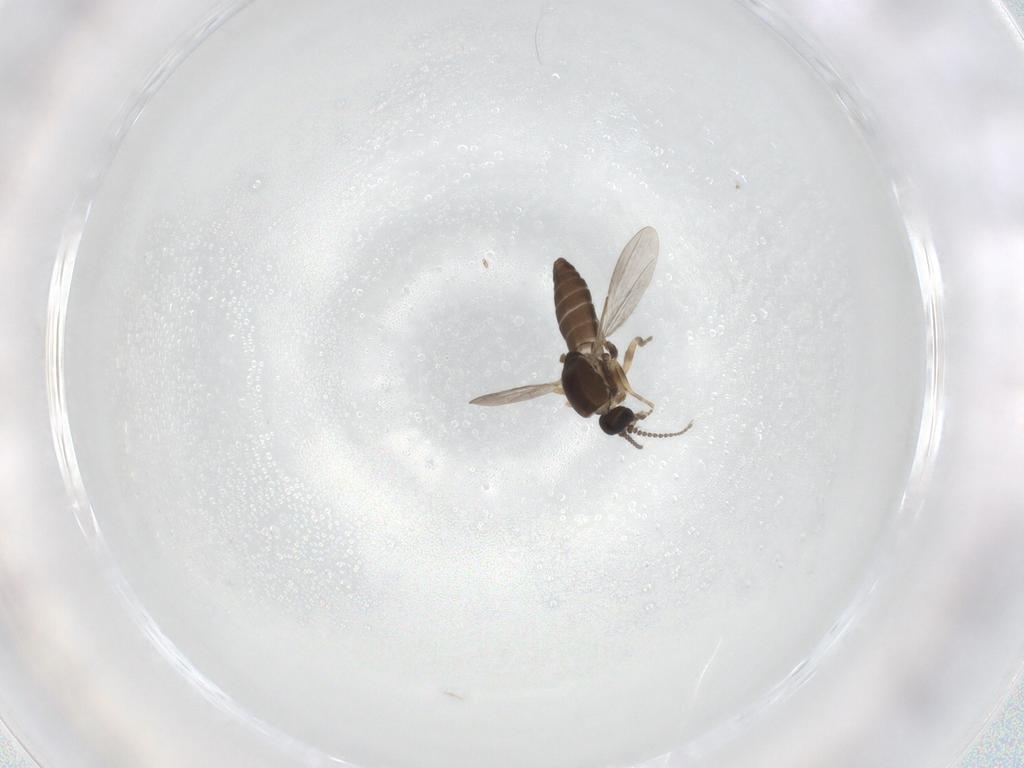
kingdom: Animalia
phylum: Arthropoda
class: Insecta
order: Diptera
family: Ceratopogonidae
